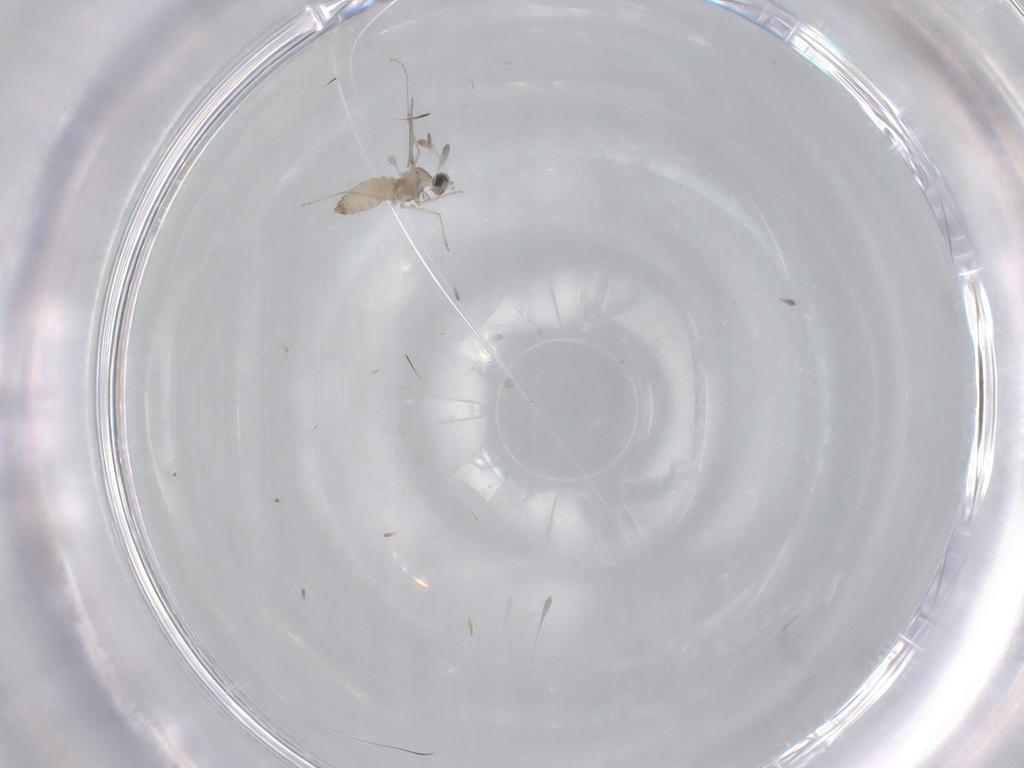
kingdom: Animalia
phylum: Arthropoda
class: Insecta
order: Diptera
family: Cecidomyiidae
